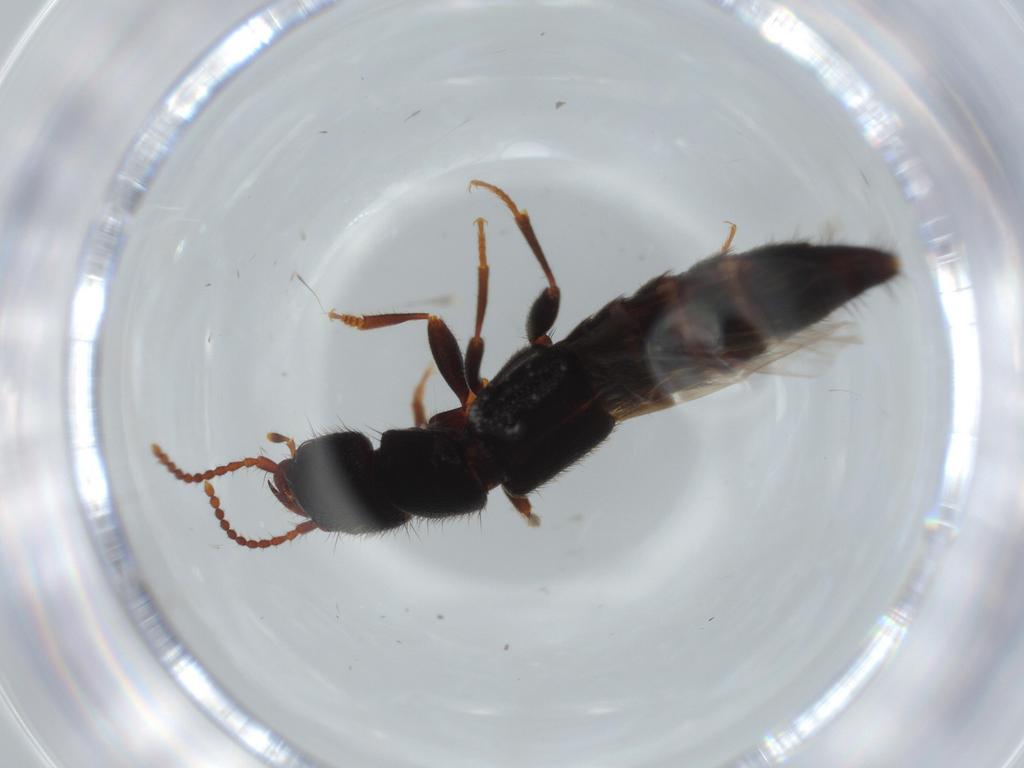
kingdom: Animalia
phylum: Arthropoda
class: Insecta
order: Coleoptera
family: Staphylinidae
